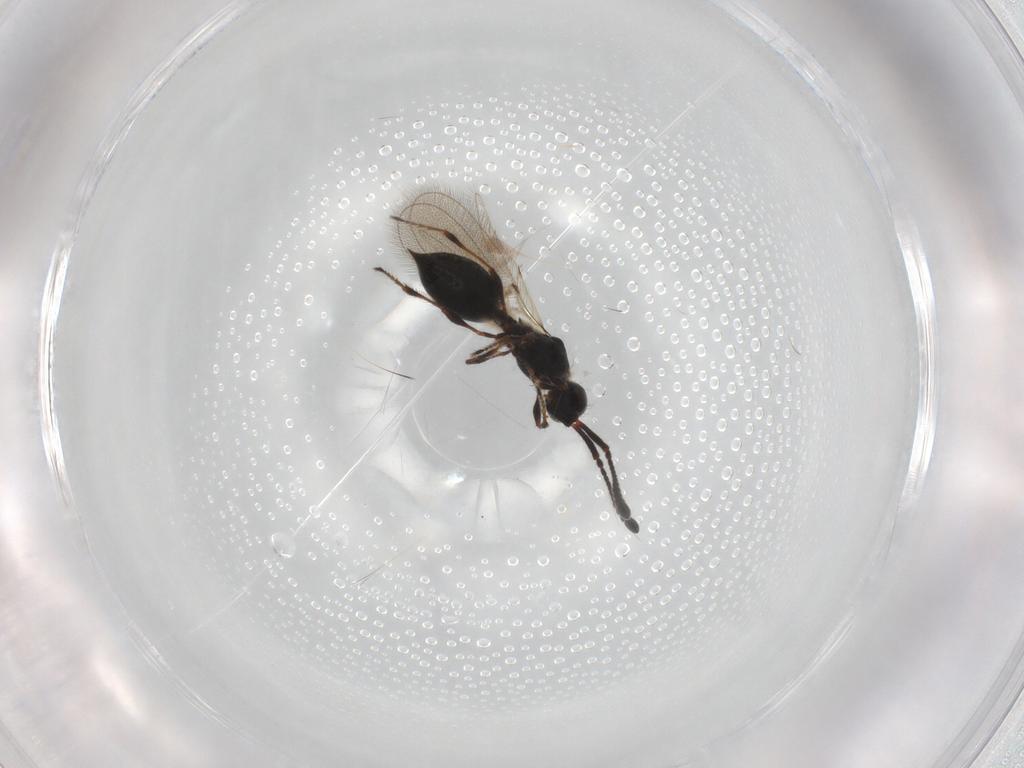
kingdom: Animalia
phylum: Arthropoda
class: Insecta
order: Hymenoptera
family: Diapriidae
